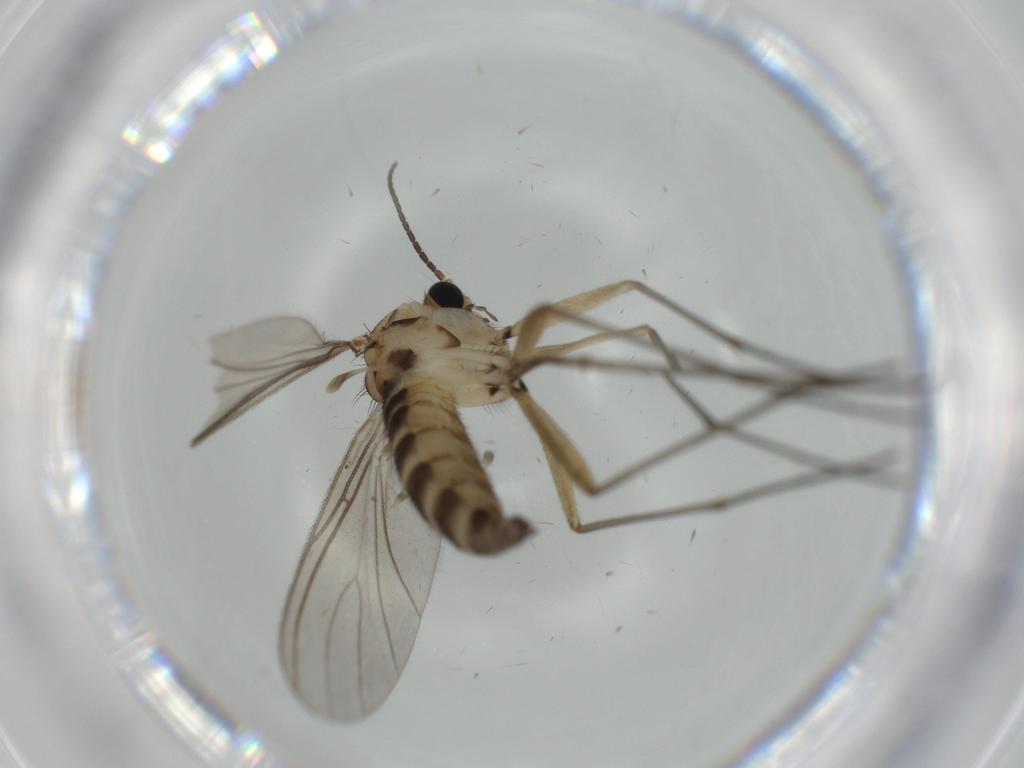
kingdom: Animalia
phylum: Arthropoda
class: Insecta
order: Diptera
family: Sciaridae
